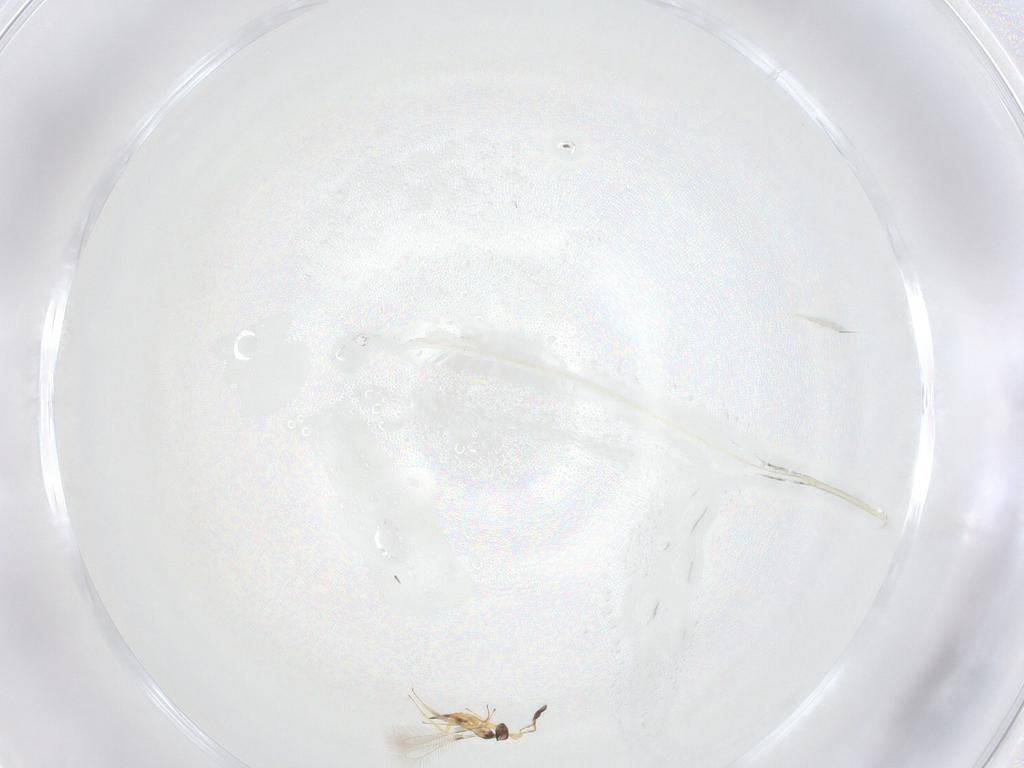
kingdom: Animalia
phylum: Arthropoda
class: Insecta
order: Hymenoptera
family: Mymaridae
